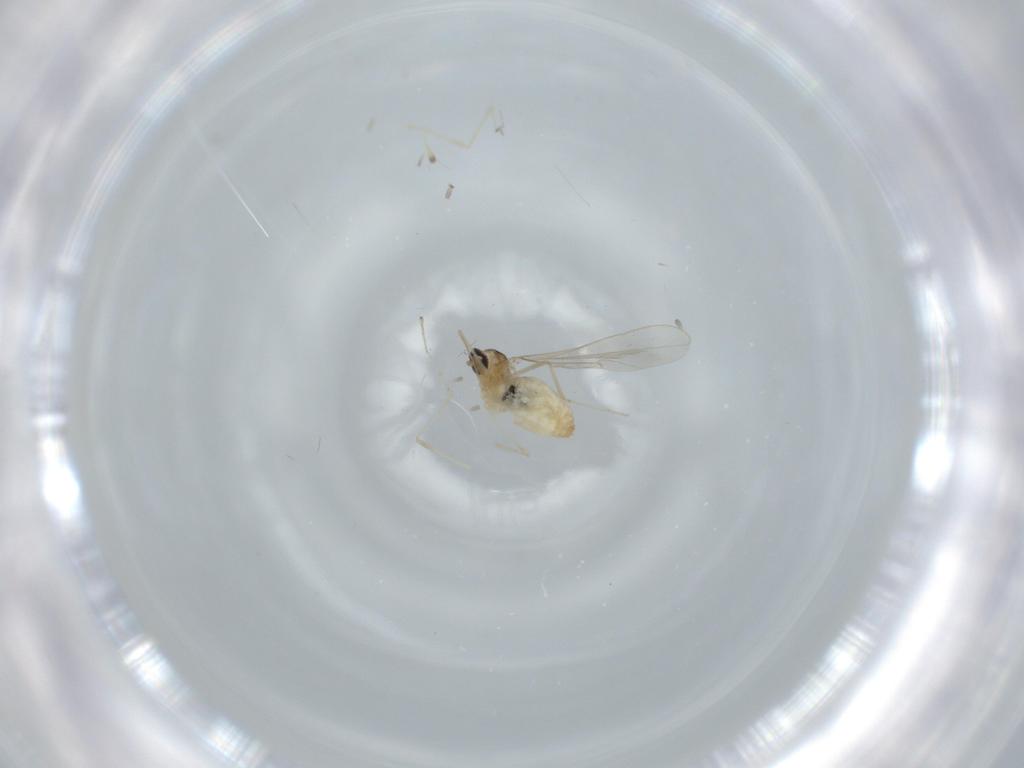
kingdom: Animalia
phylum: Arthropoda
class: Insecta
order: Diptera
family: Cecidomyiidae
